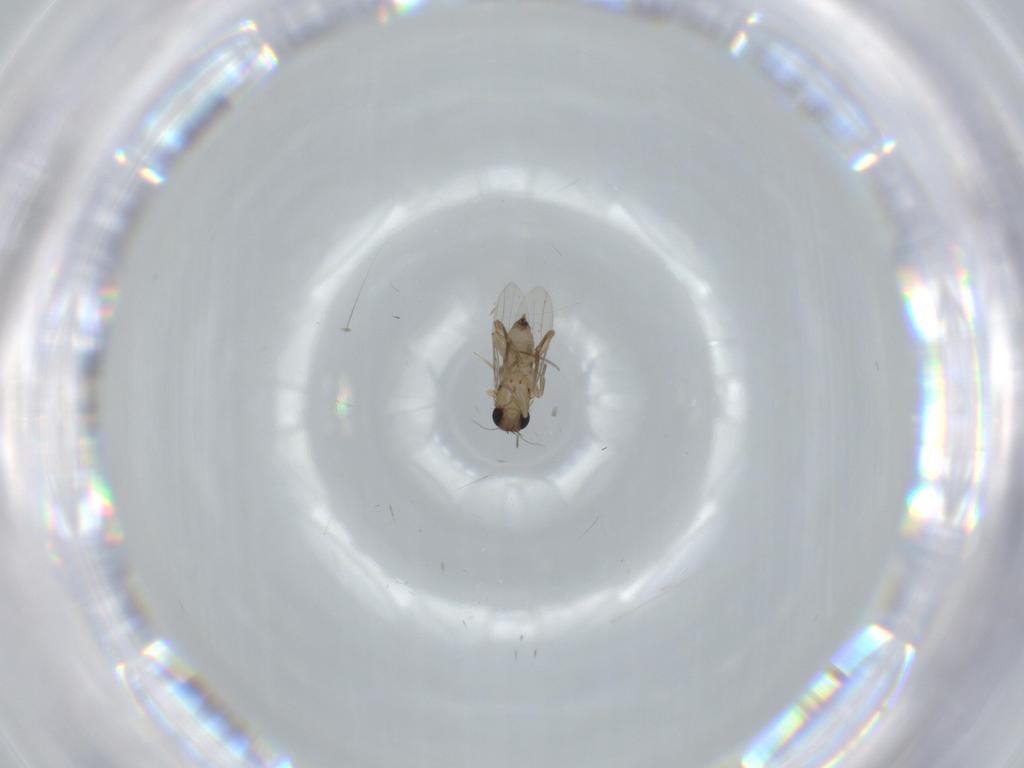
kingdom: Animalia
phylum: Arthropoda
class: Insecta
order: Diptera
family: Phoridae
